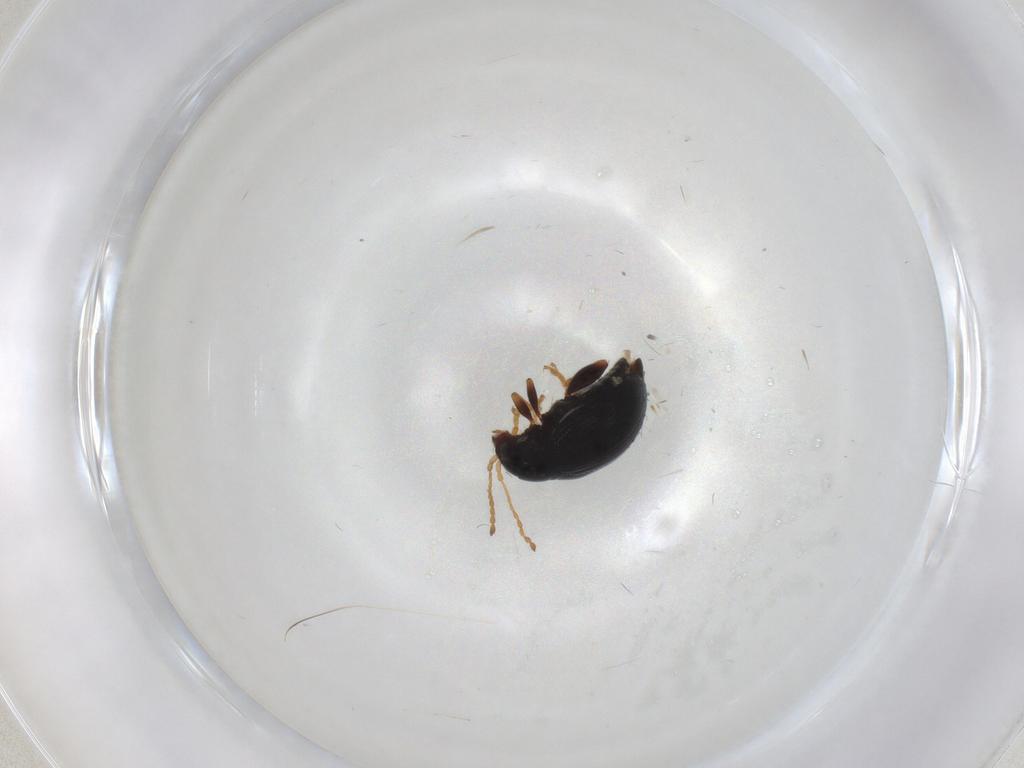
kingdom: Animalia
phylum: Arthropoda
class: Insecta
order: Coleoptera
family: Chrysomelidae
